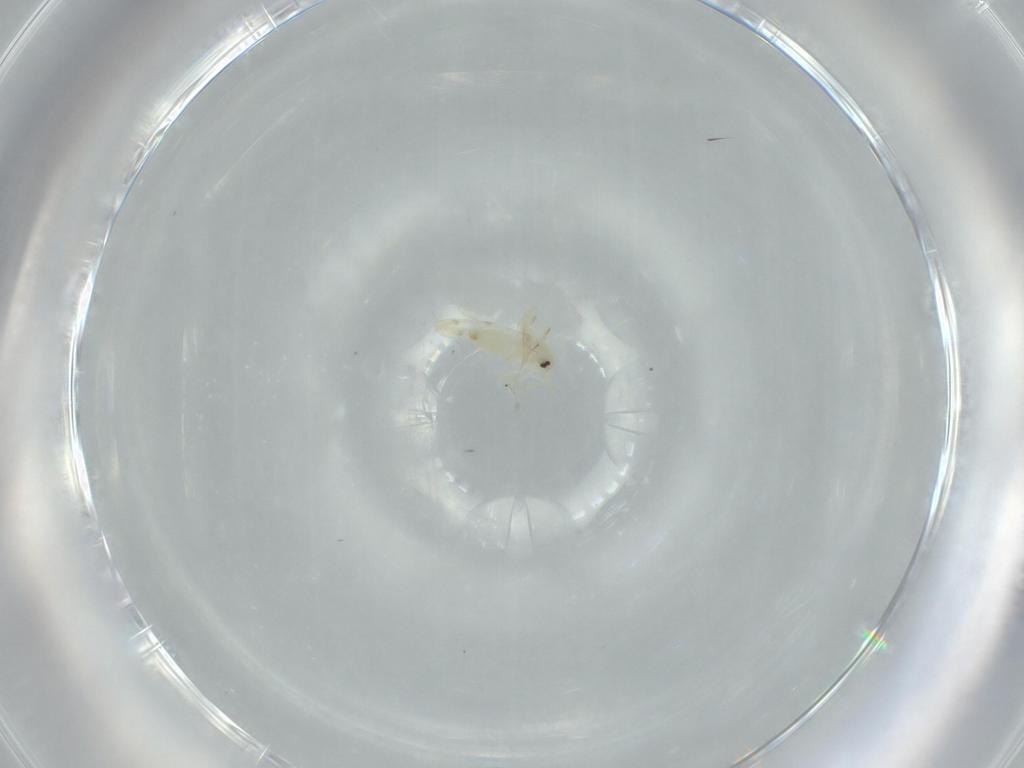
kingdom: Animalia
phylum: Arthropoda
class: Insecta
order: Hemiptera
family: Aleyrodidae
